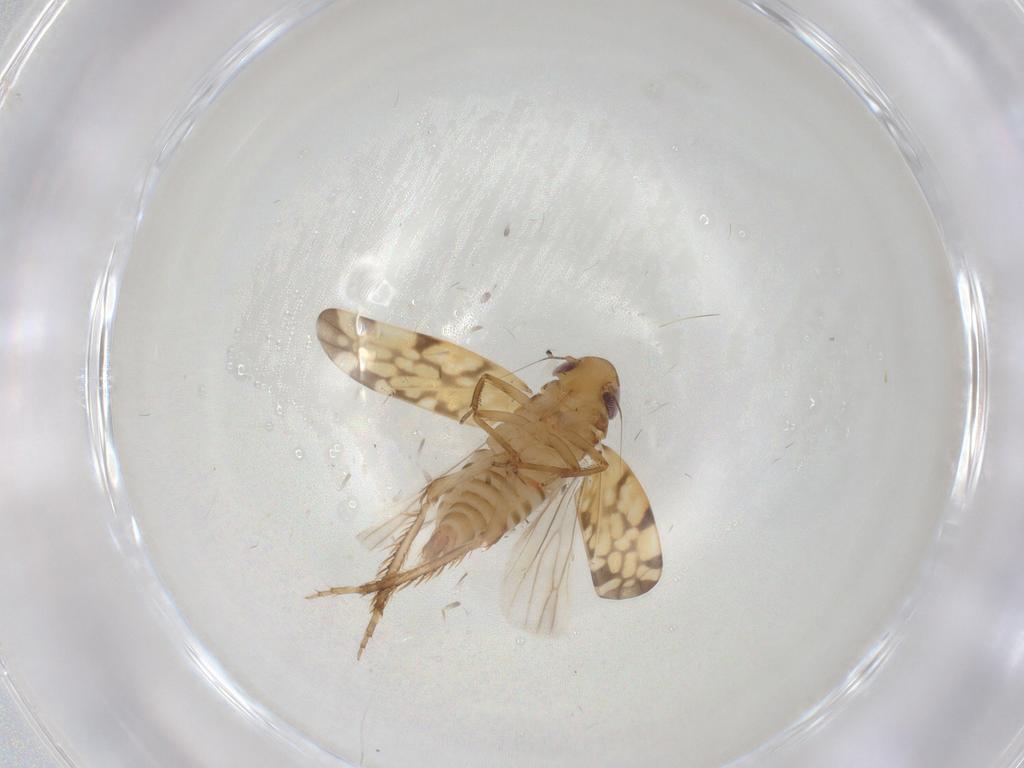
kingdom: Animalia
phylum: Arthropoda
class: Insecta
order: Hemiptera
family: Cicadellidae
